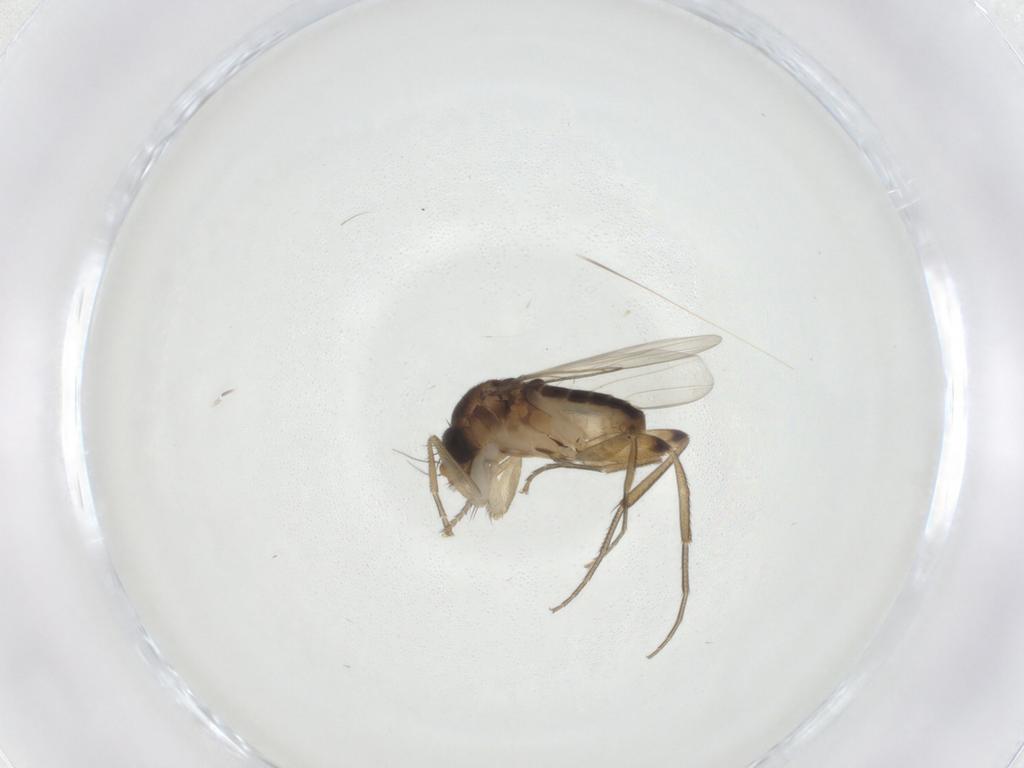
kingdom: Animalia
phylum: Arthropoda
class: Insecta
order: Diptera
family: Phoridae
